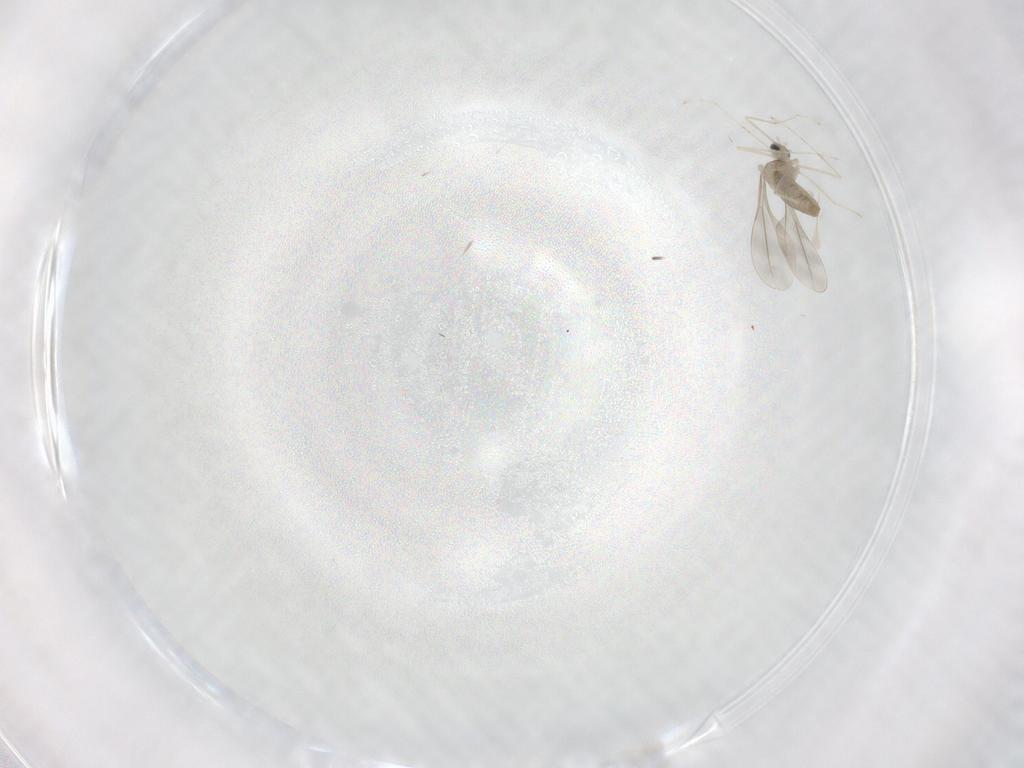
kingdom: Animalia
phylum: Arthropoda
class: Insecta
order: Diptera
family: Cecidomyiidae
